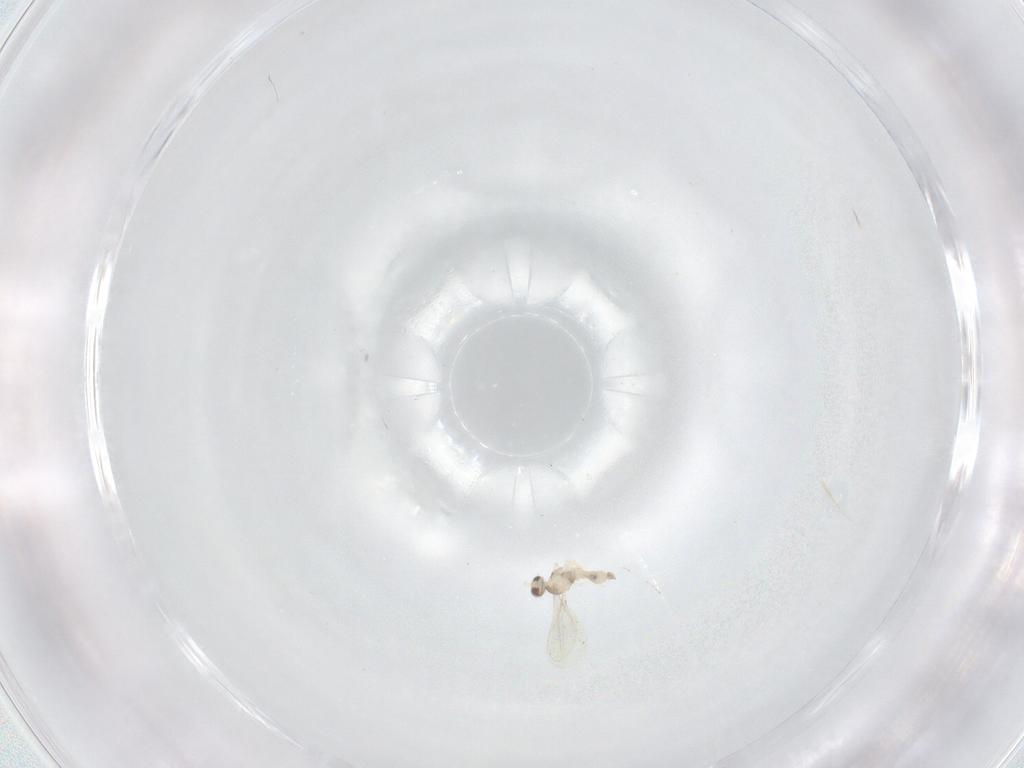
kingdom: Animalia
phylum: Arthropoda
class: Insecta
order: Diptera
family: Cecidomyiidae
